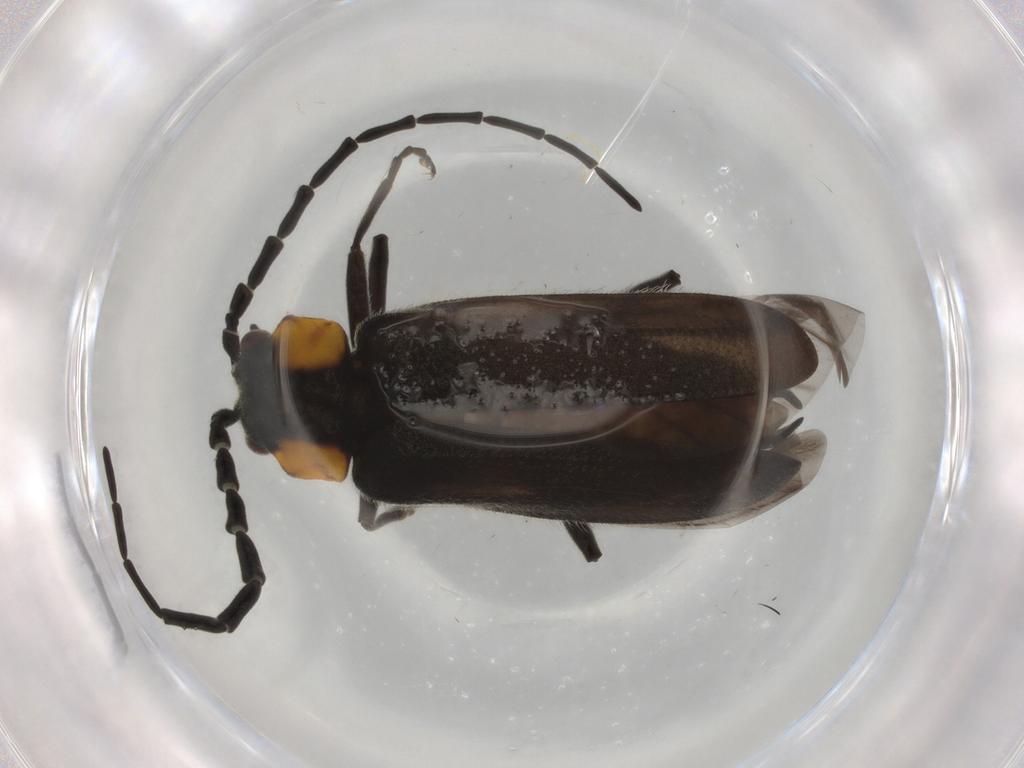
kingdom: Animalia
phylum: Arthropoda
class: Insecta
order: Coleoptera
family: Cantharidae
